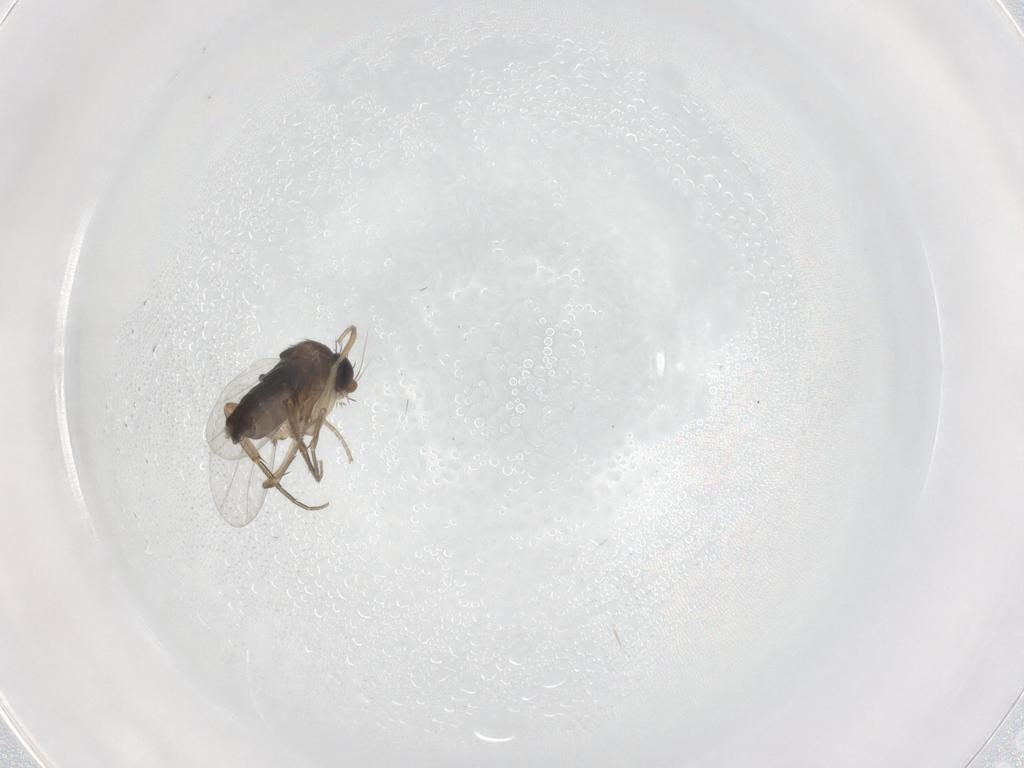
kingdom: Animalia
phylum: Arthropoda
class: Insecta
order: Diptera
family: Phoridae
